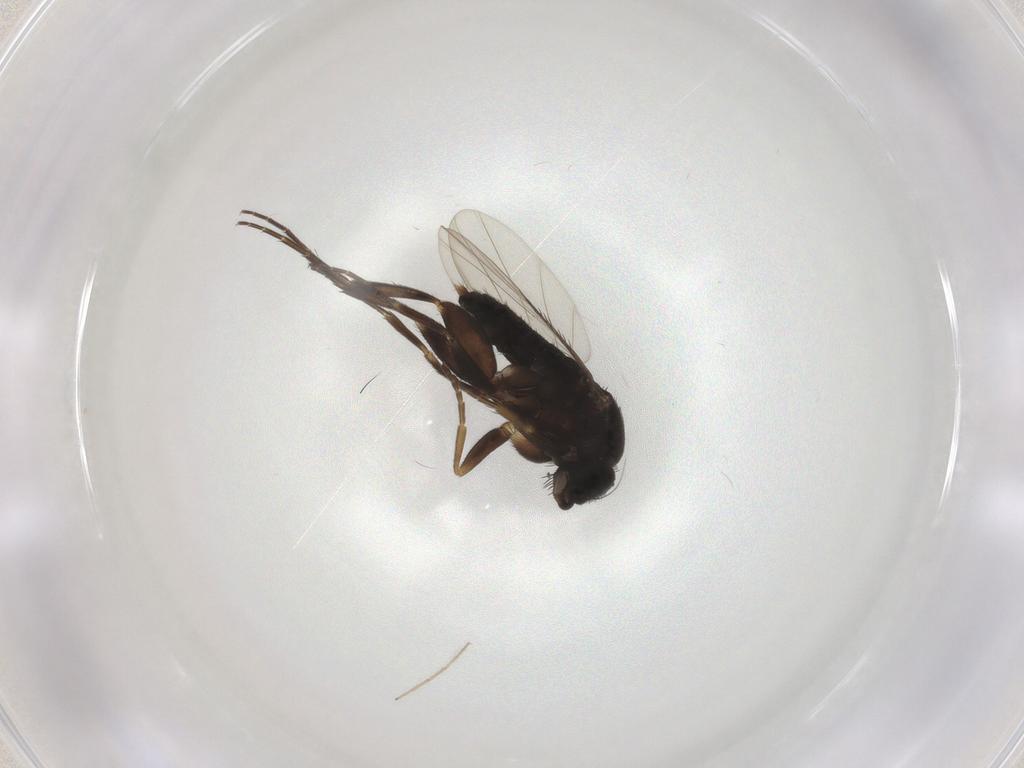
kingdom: Animalia
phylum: Arthropoda
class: Insecta
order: Diptera
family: Phoridae
